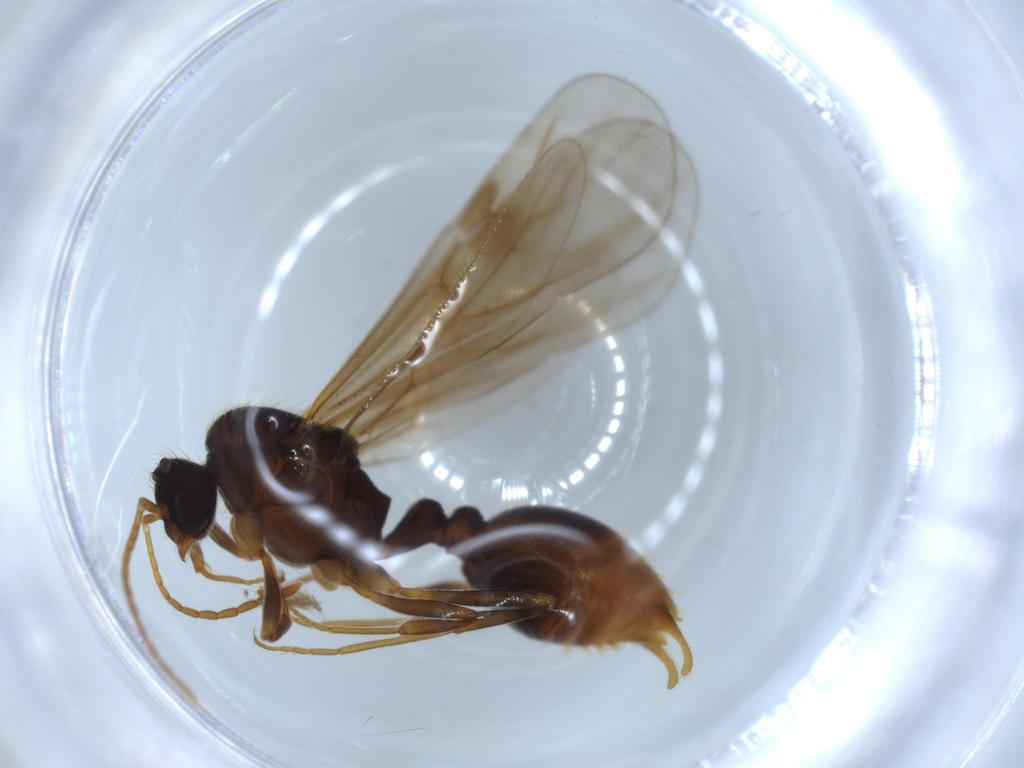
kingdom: Animalia
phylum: Arthropoda
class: Insecta
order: Hymenoptera
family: Formicidae
